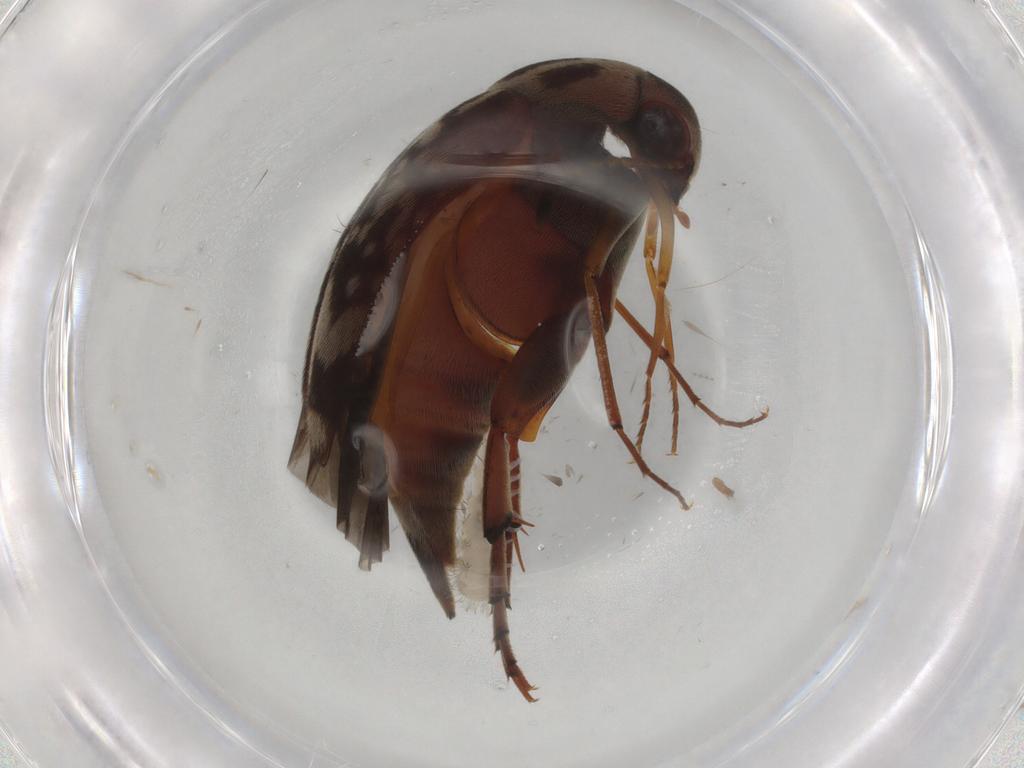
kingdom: Animalia
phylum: Arthropoda
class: Insecta
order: Coleoptera
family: Mordellidae
